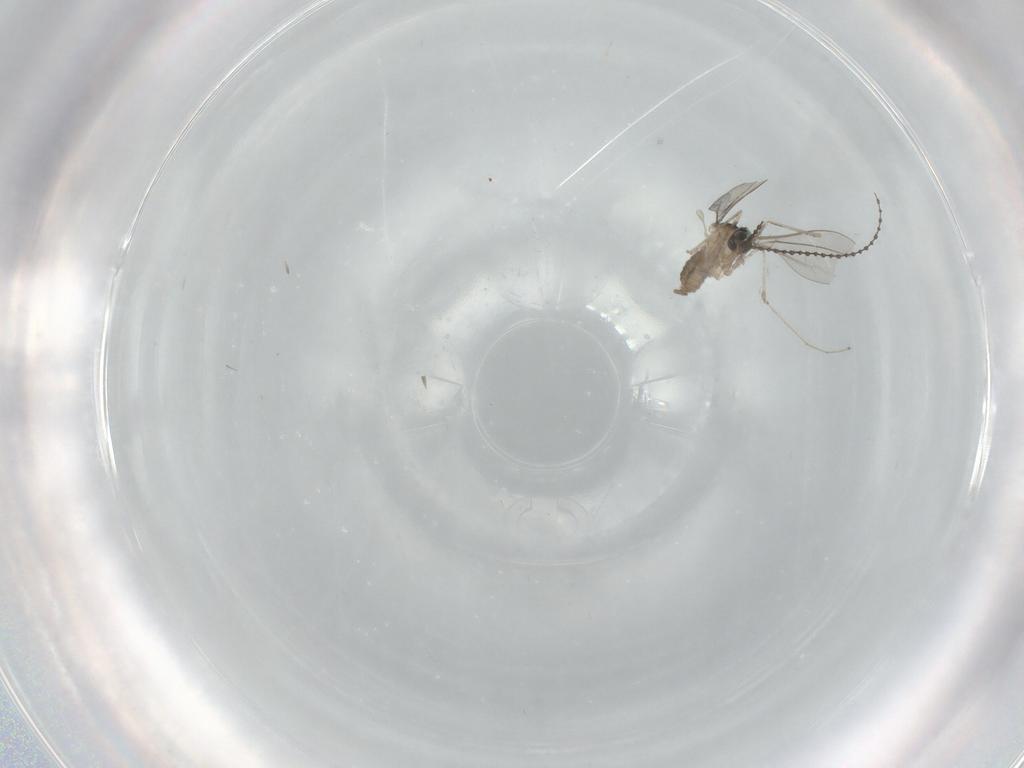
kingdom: Animalia
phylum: Arthropoda
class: Insecta
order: Diptera
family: Cecidomyiidae
